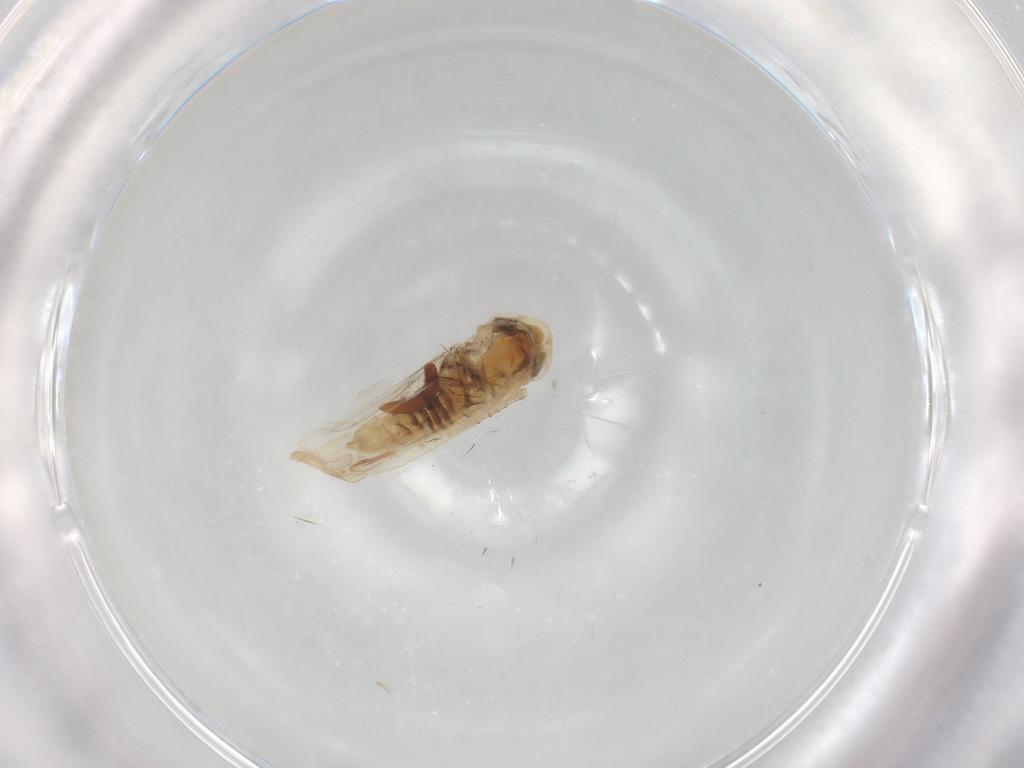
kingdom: Animalia
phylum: Arthropoda
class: Insecta
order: Hemiptera
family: Cicadellidae
